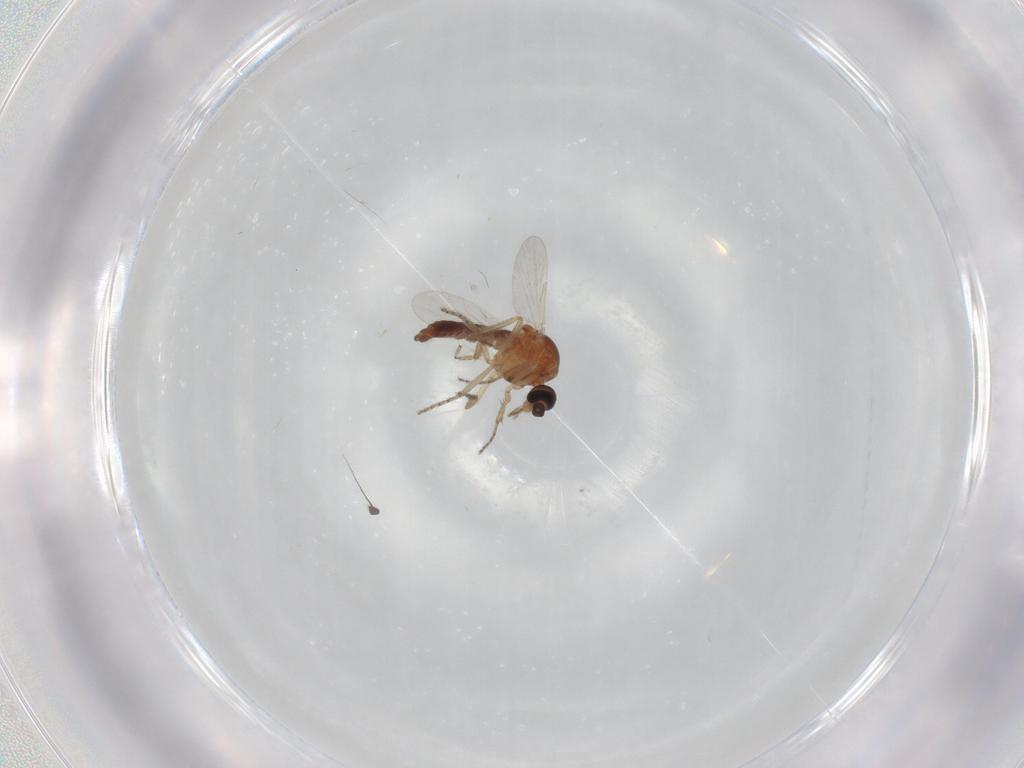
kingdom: Animalia
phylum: Arthropoda
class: Insecta
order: Diptera
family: Ceratopogonidae
